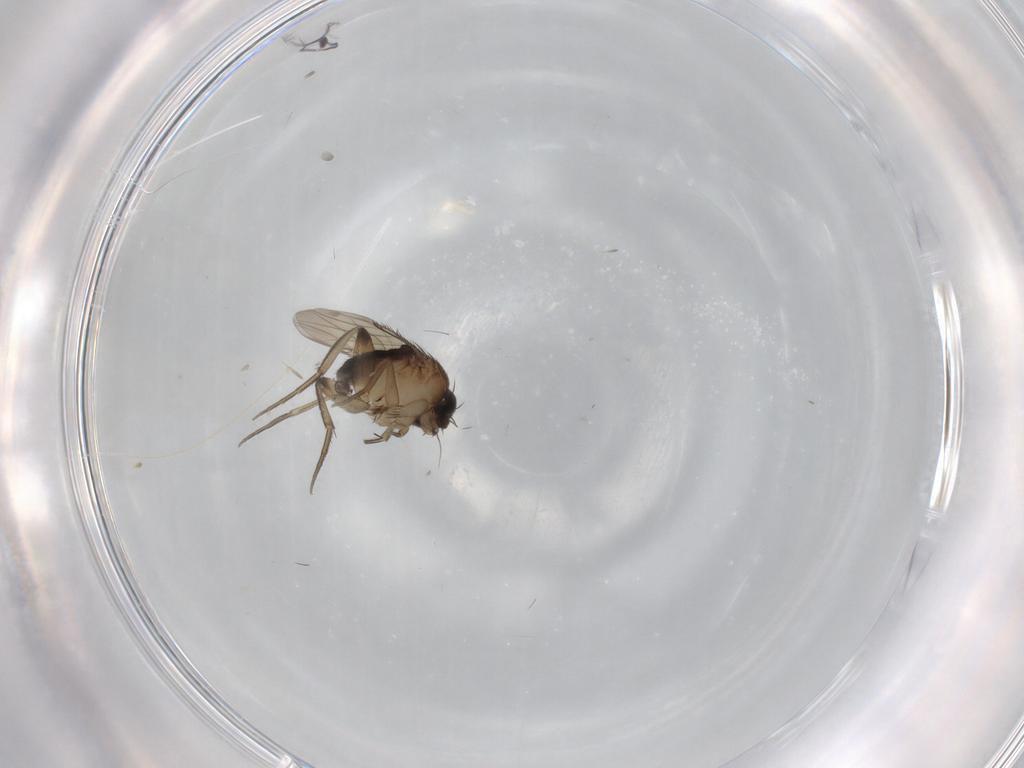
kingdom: Animalia
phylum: Arthropoda
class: Insecta
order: Diptera
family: Phoridae
